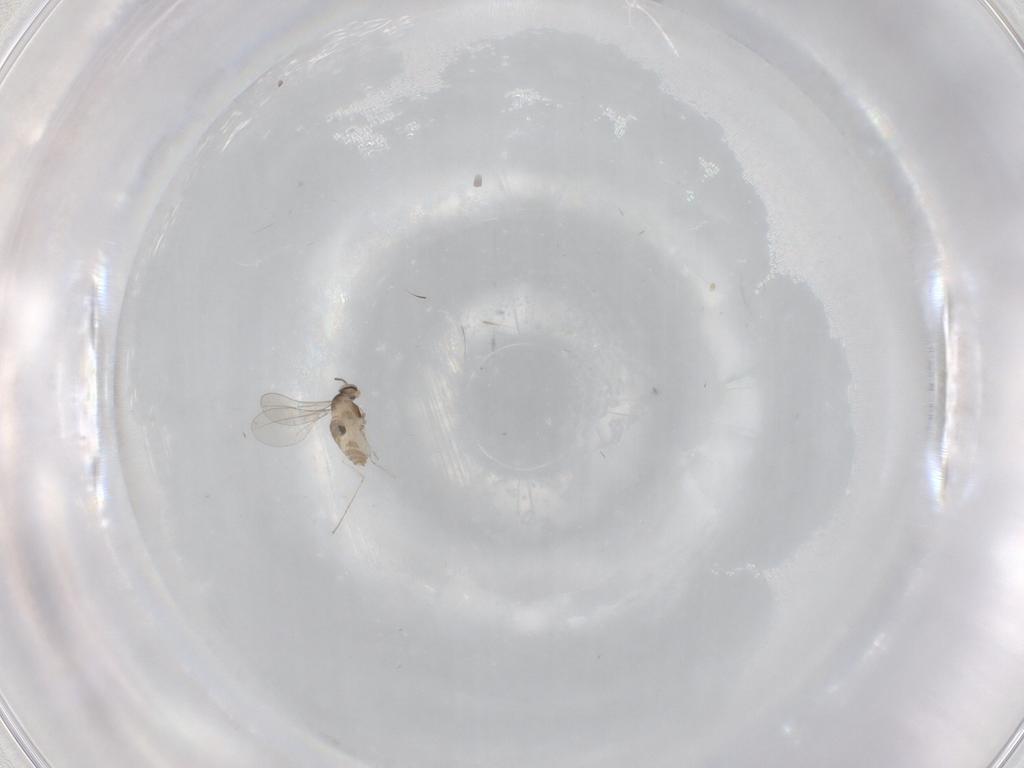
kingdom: Animalia
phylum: Arthropoda
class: Insecta
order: Diptera
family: Cecidomyiidae
